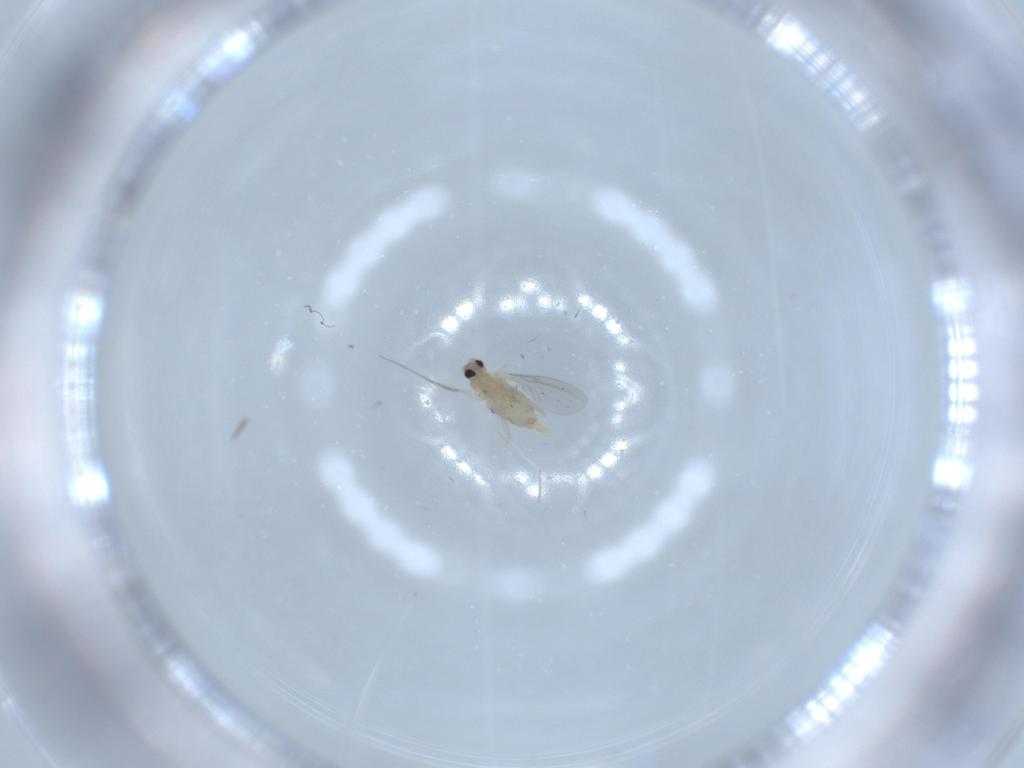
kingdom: Animalia
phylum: Arthropoda
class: Insecta
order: Diptera
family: Cecidomyiidae
